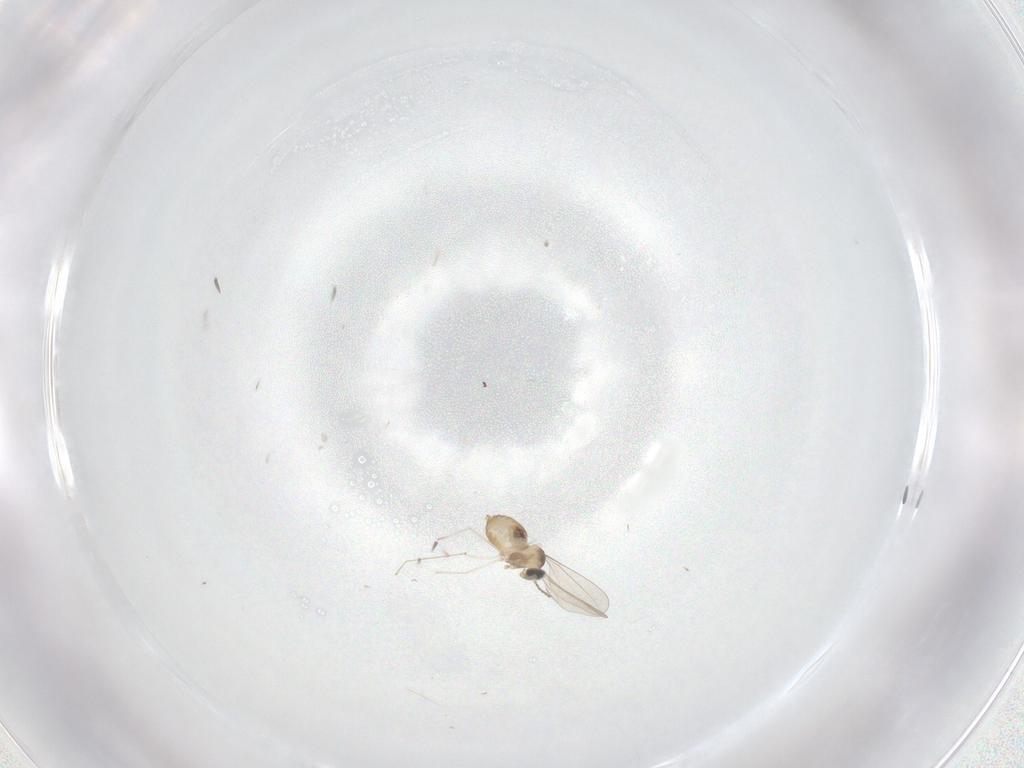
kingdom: Animalia
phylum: Arthropoda
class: Insecta
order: Diptera
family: Cecidomyiidae
